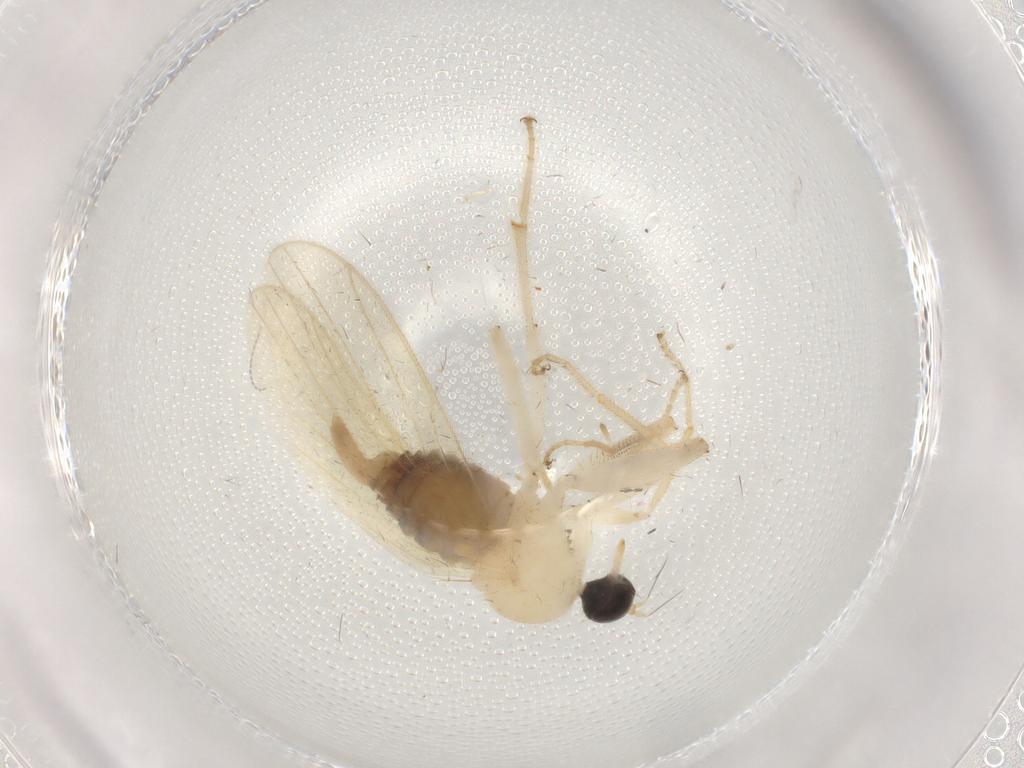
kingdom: Animalia
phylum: Arthropoda
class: Insecta
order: Diptera
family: Hybotidae
